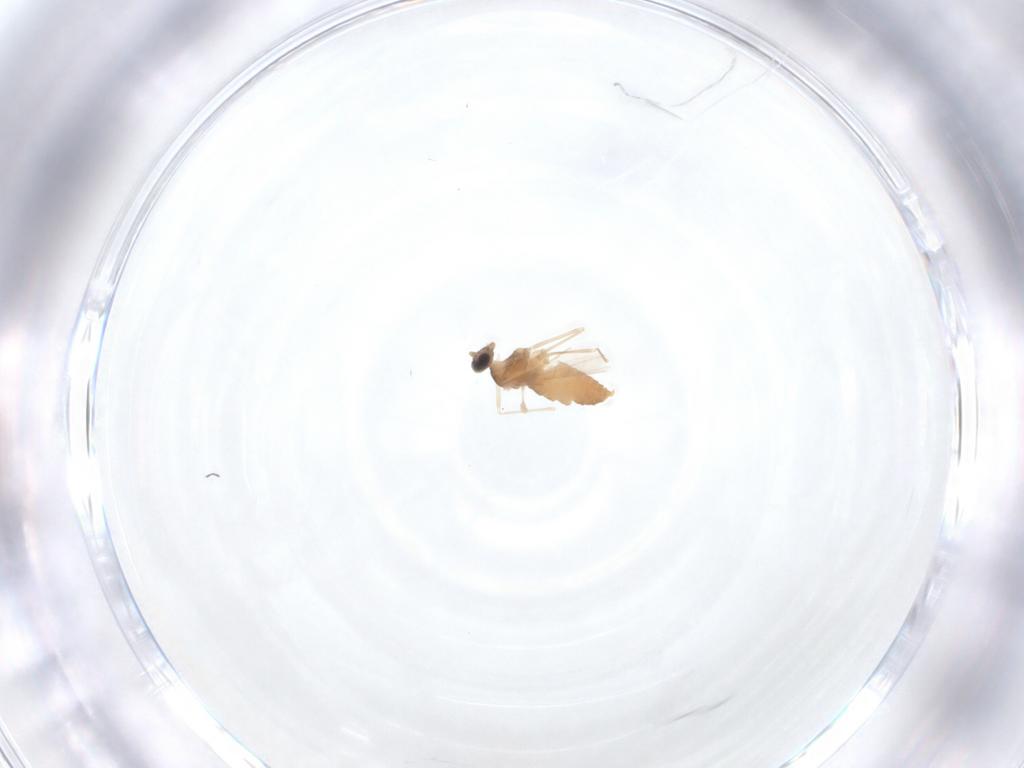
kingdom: Animalia
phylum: Arthropoda
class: Insecta
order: Diptera
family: Cecidomyiidae
